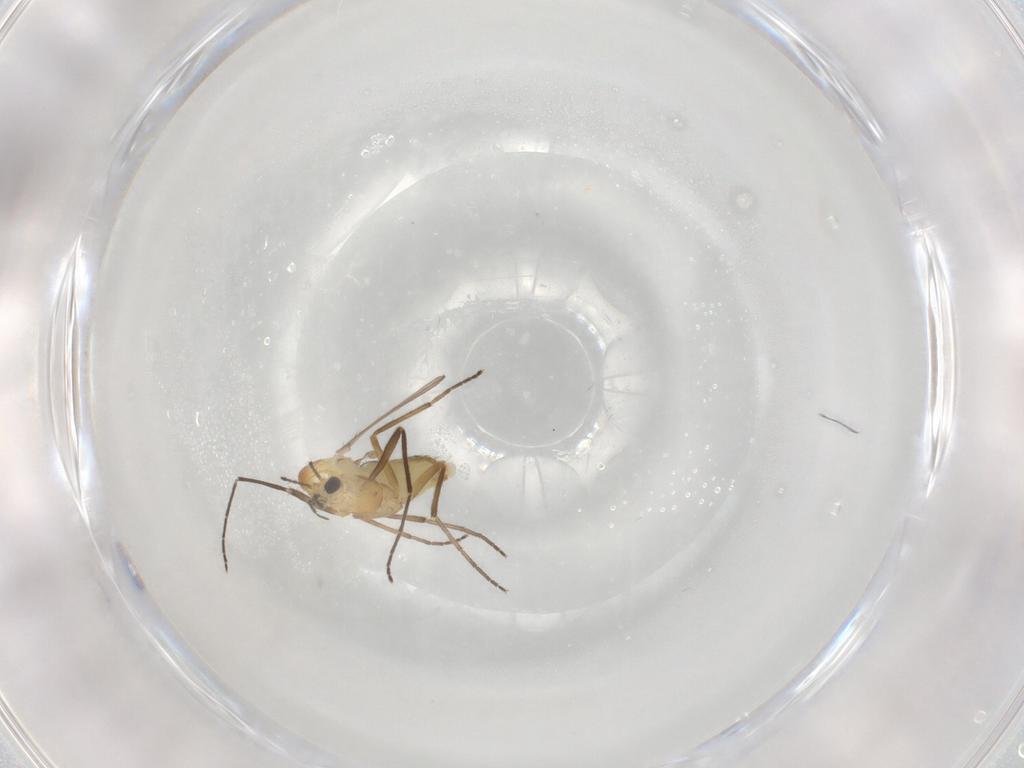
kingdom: Animalia
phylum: Arthropoda
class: Insecta
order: Diptera
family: Chironomidae
